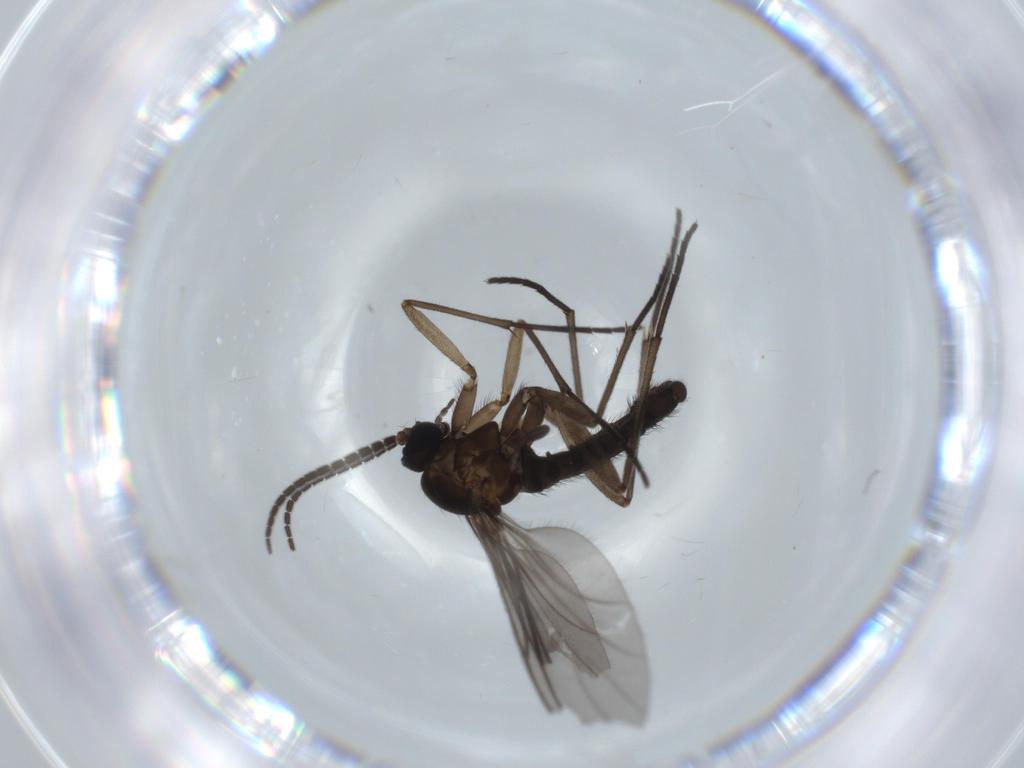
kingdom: Animalia
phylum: Arthropoda
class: Insecta
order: Diptera
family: Sciaridae
